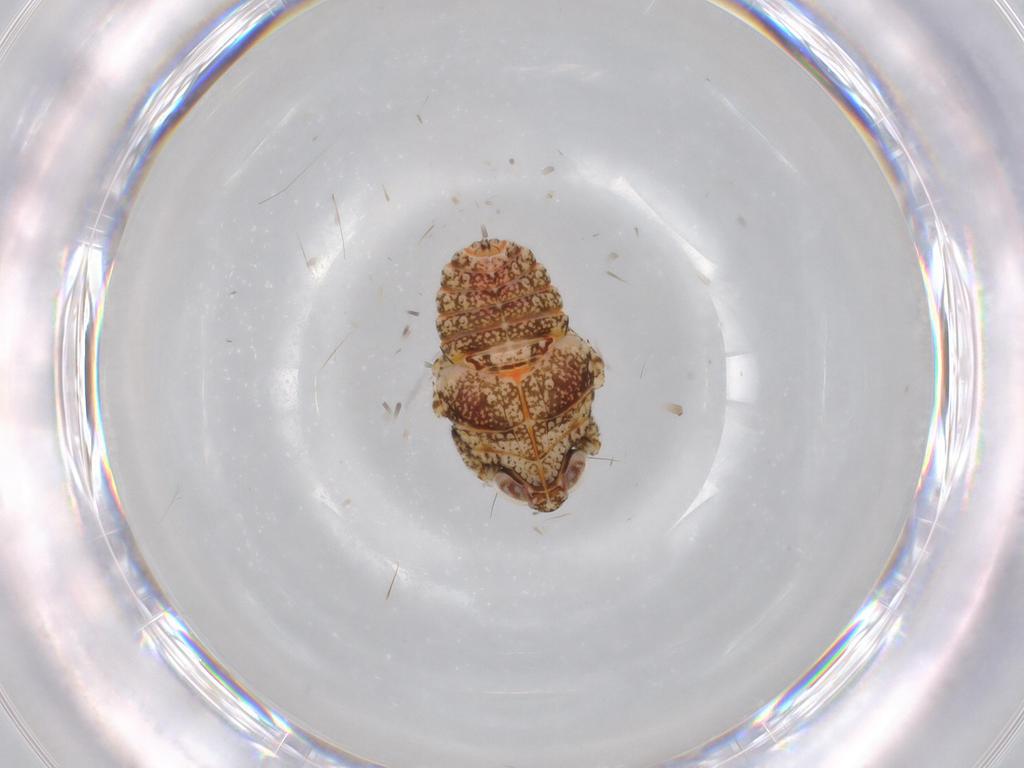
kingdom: Animalia
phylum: Arthropoda
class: Insecta
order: Hemiptera
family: Issidae
